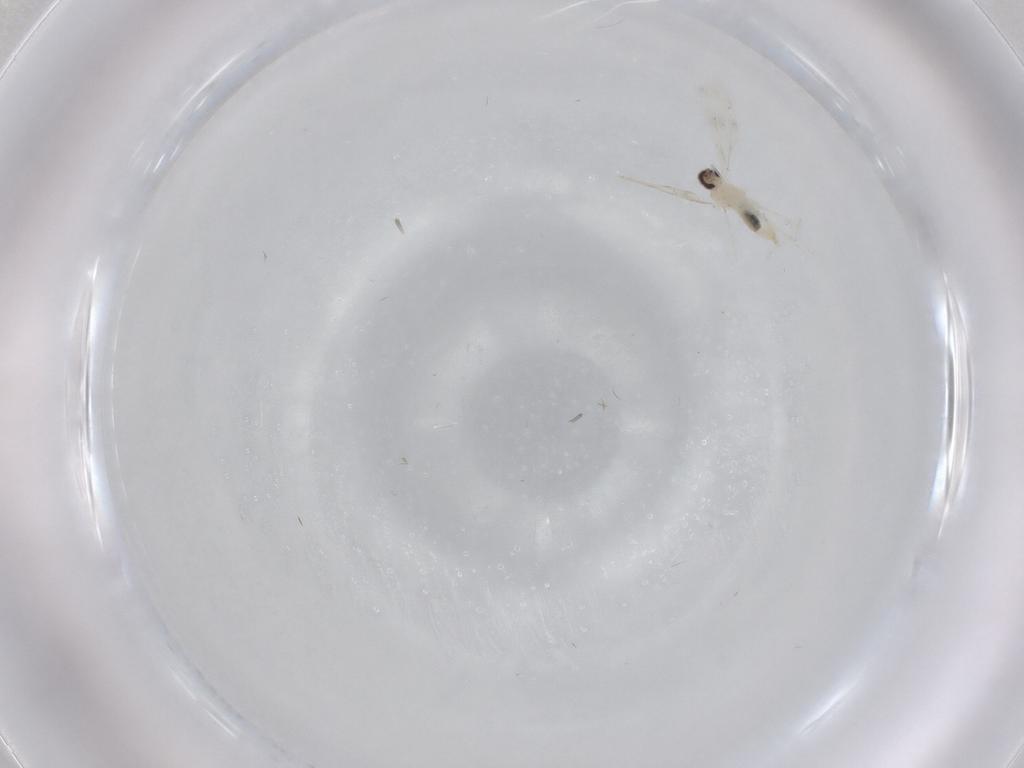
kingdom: Animalia
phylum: Arthropoda
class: Insecta
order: Diptera
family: Cecidomyiidae
